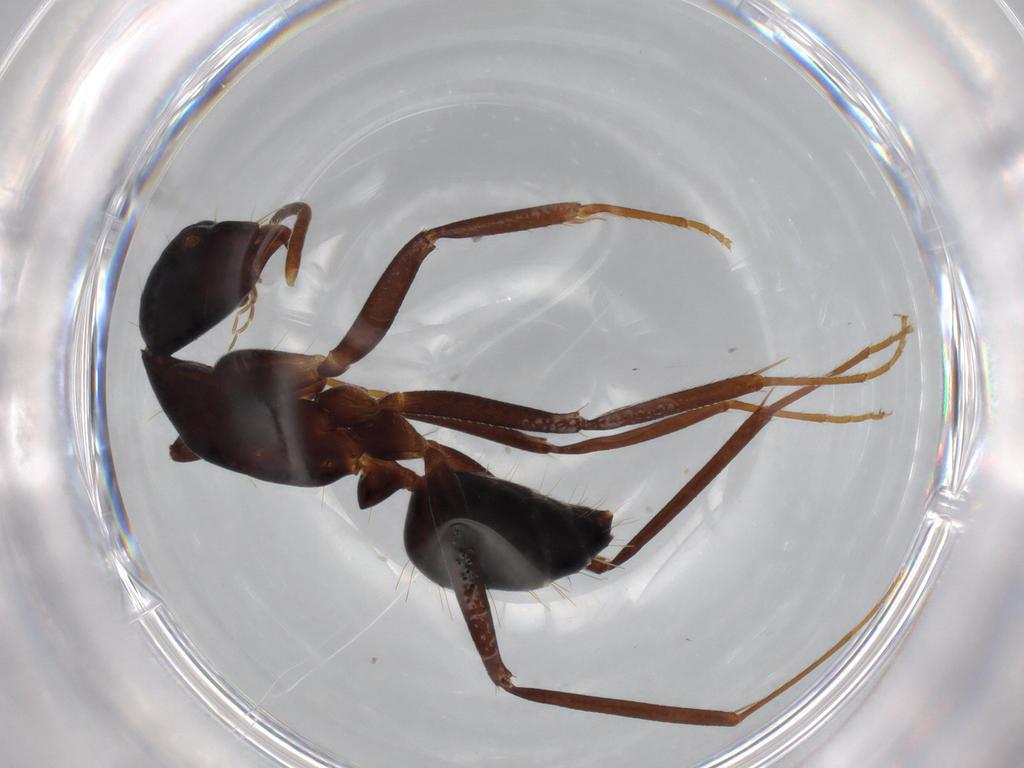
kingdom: Animalia
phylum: Arthropoda
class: Insecta
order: Hymenoptera
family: Formicidae
